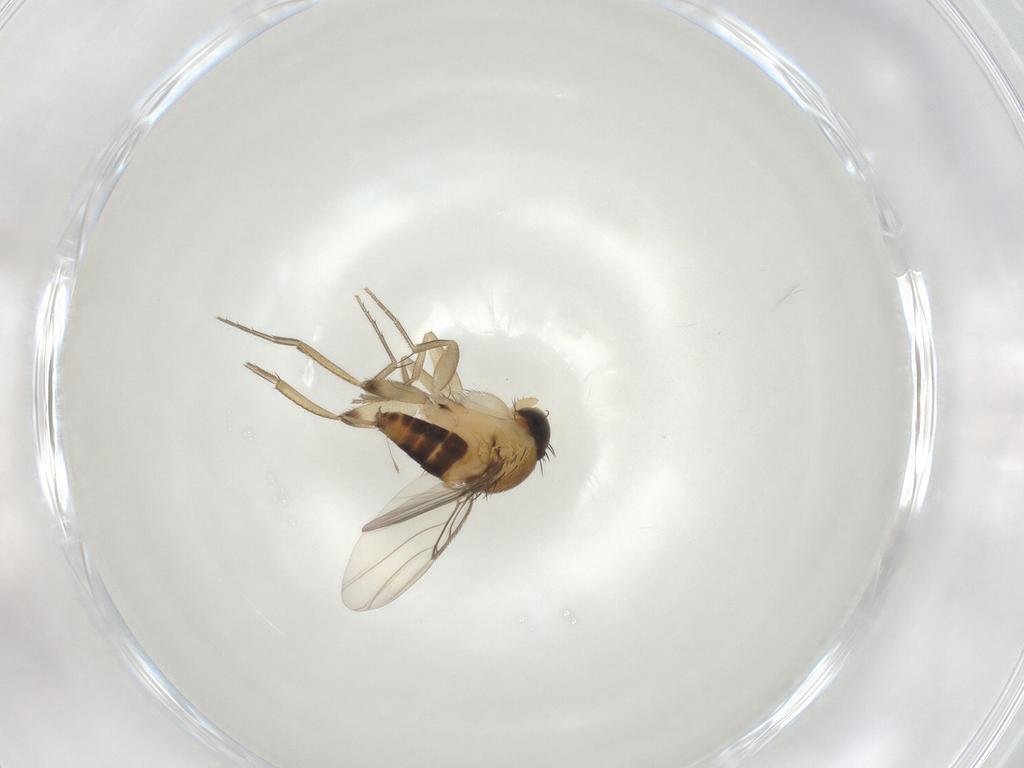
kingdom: Animalia
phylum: Arthropoda
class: Insecta
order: Diptera
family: Phoridae
